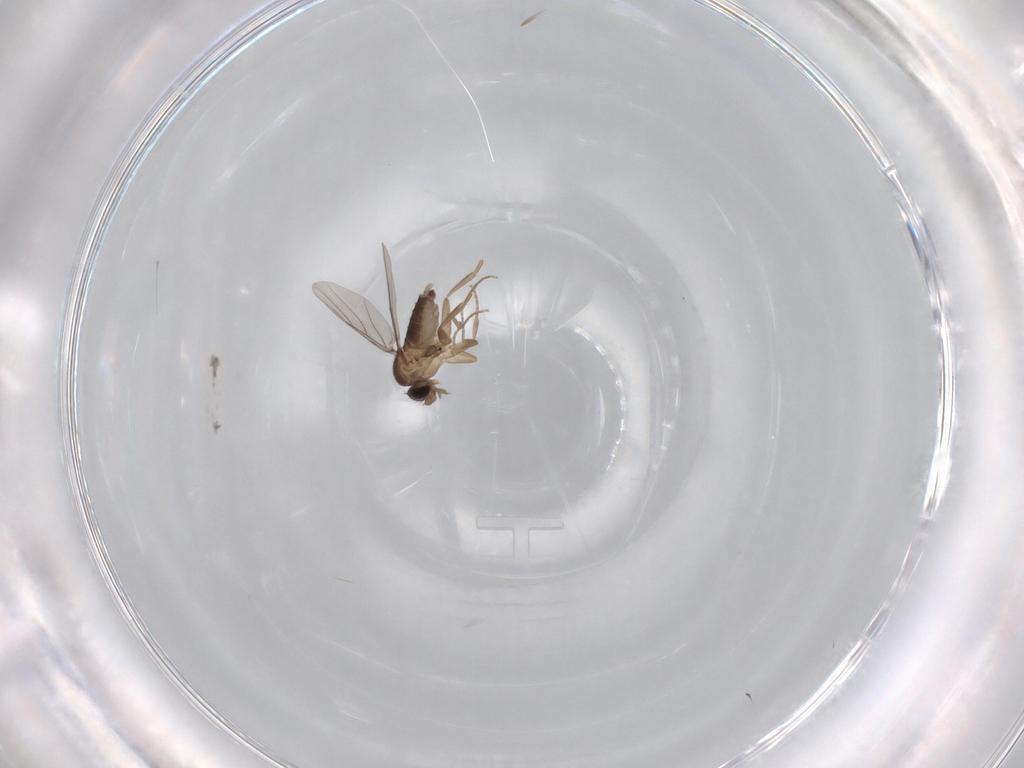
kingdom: Animalia
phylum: Arthropoda
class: Insecta
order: Diptera
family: Phoridae
